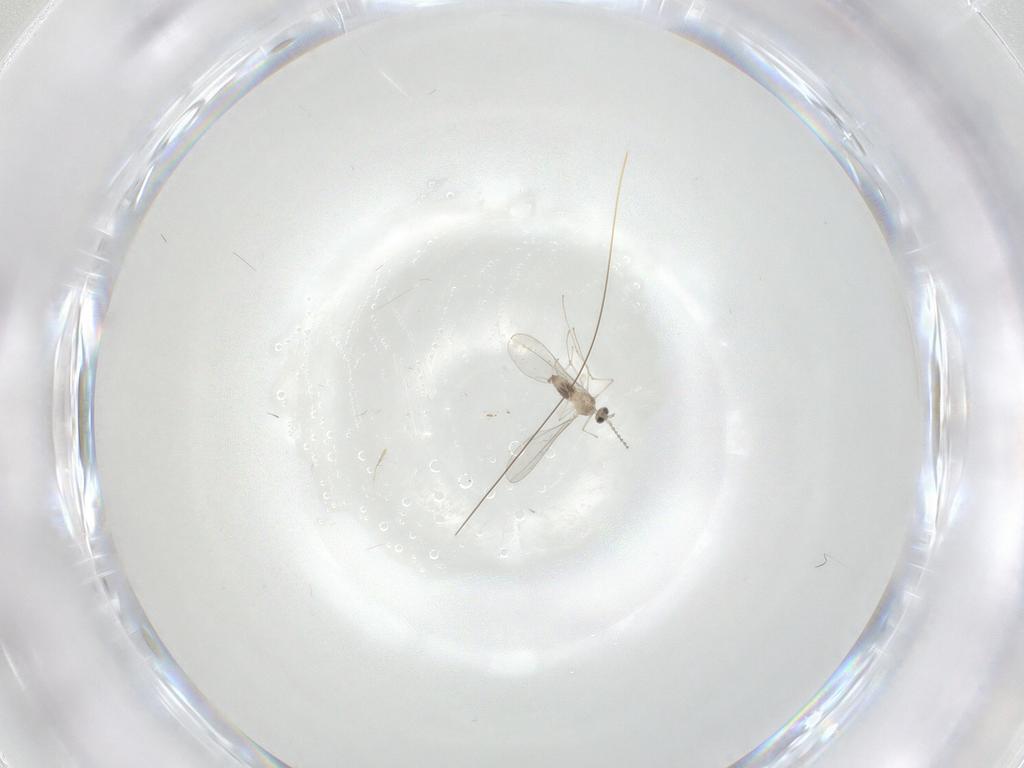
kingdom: Animalia
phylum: Arthropoda
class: Insecta
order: Diptera
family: Cecidomyiidae
